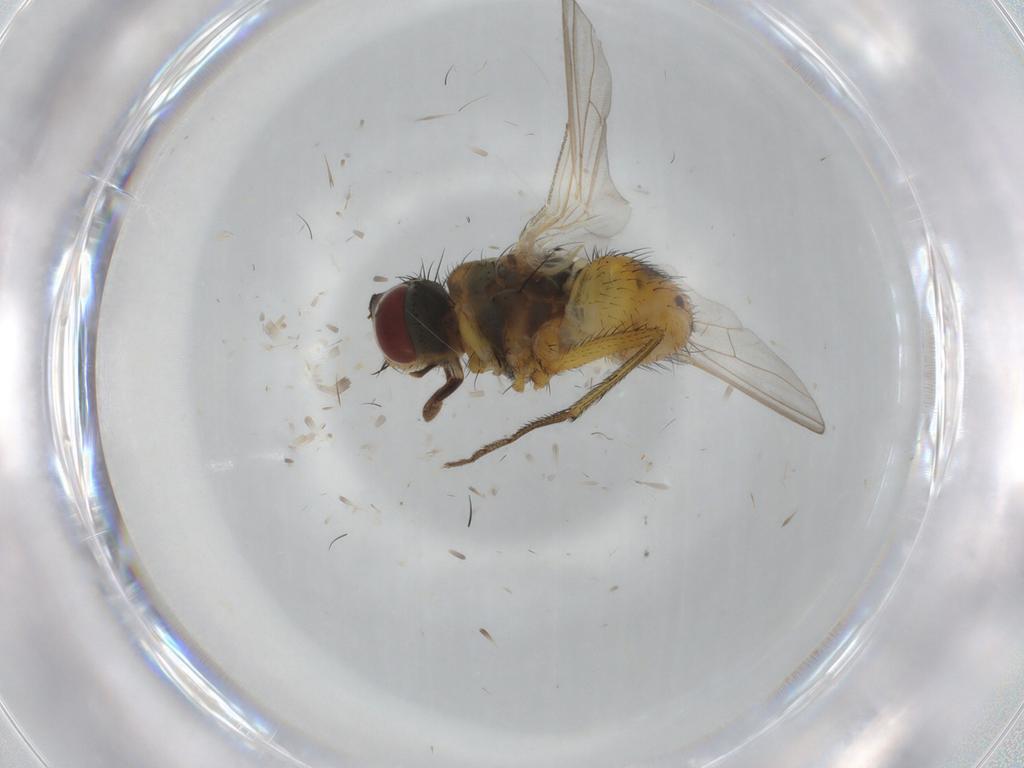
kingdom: Animalia
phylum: Arthropoda
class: Insecta
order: Diptera
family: Muscidae
